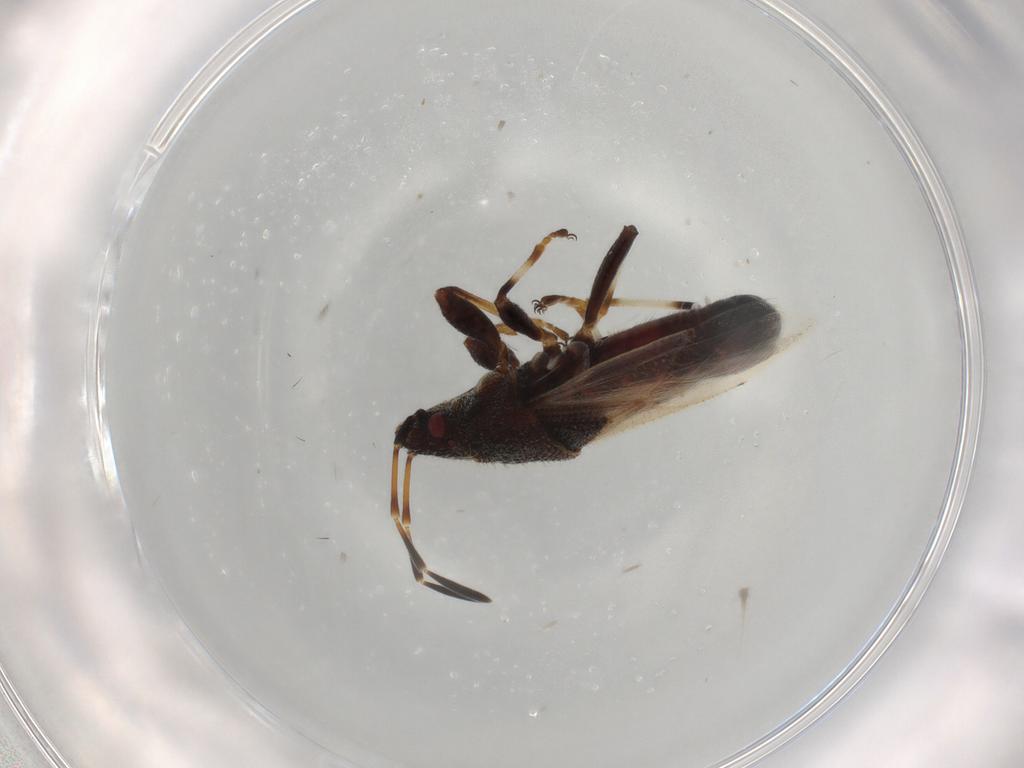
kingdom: Animalia
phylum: Arthropoda
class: Insecta
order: Hemiptera
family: Oxycarenidae
